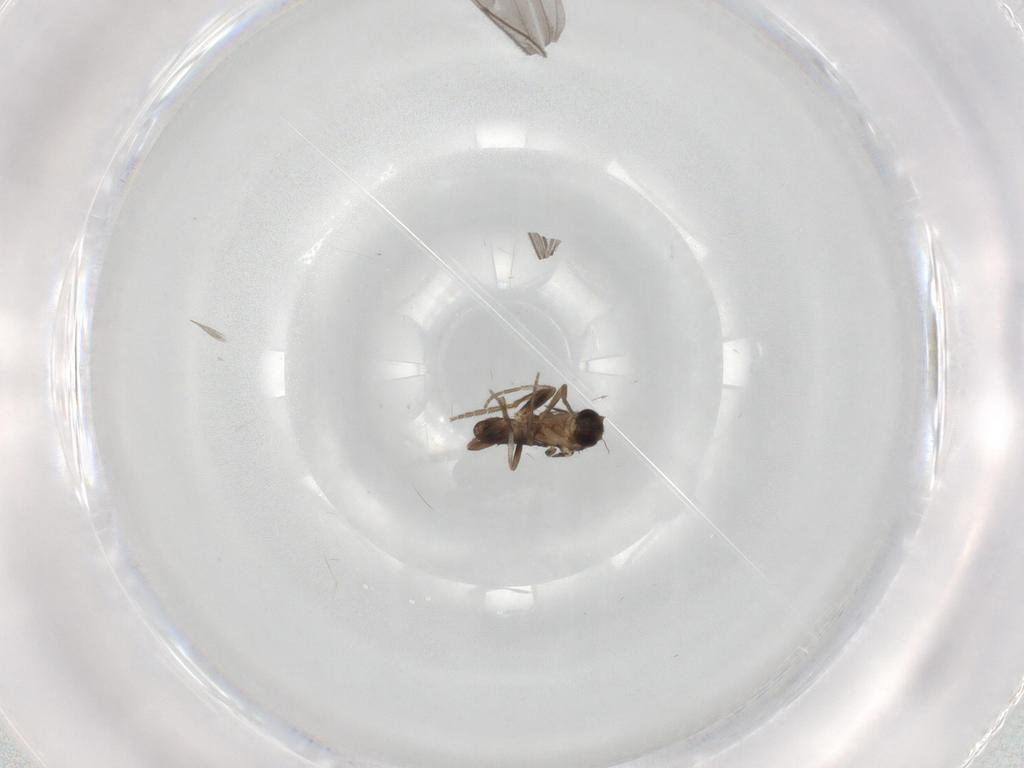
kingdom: Animalia
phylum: Arthropoda
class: Insecta
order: Diptera
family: Phoridae
